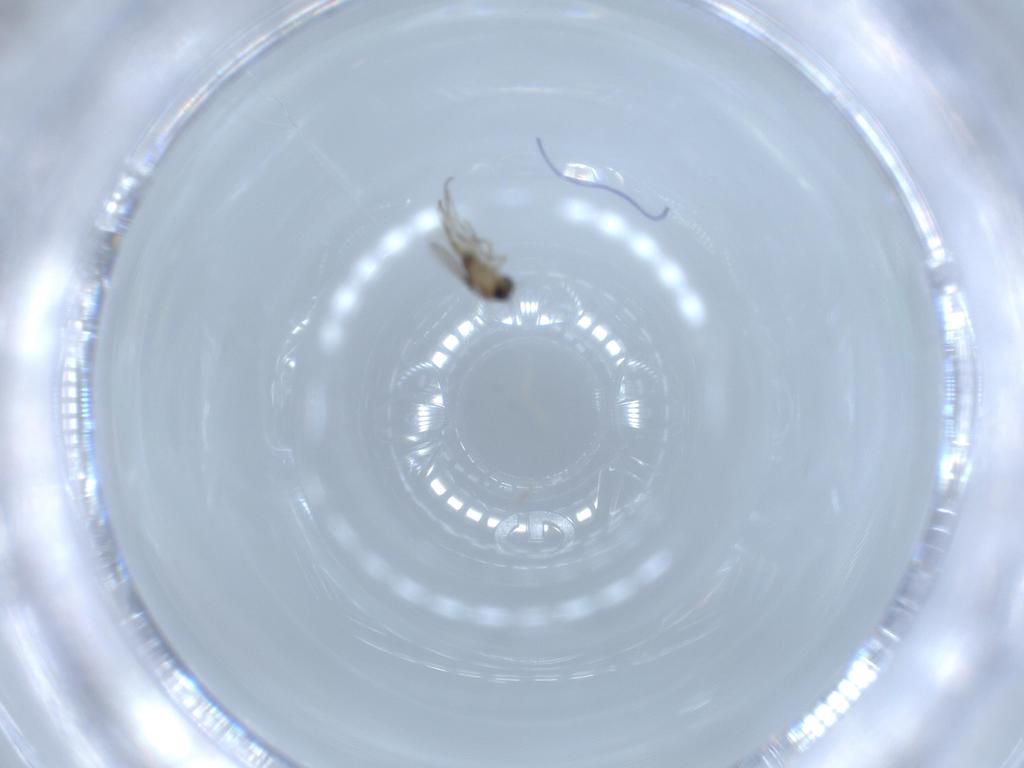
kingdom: Animalia
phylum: Arthropoda
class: Insecta
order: Diptera
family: Phoridae
